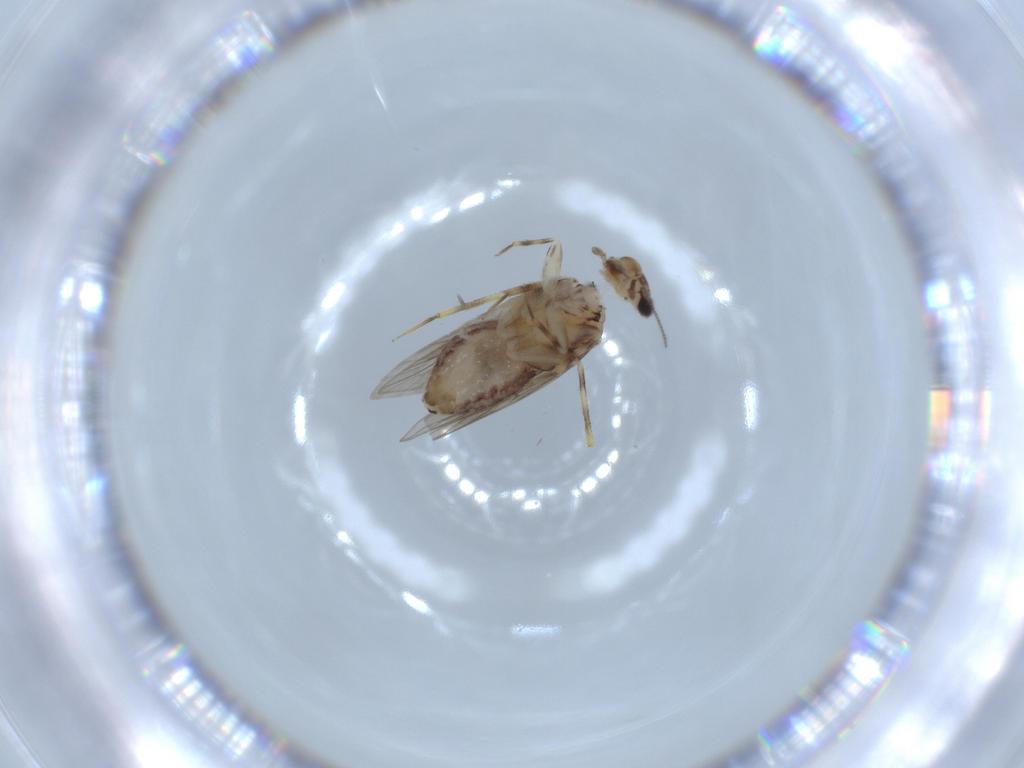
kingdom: Animalia
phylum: Arthropoda
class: Insecta
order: Psocodea
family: Lepidopsocidae
